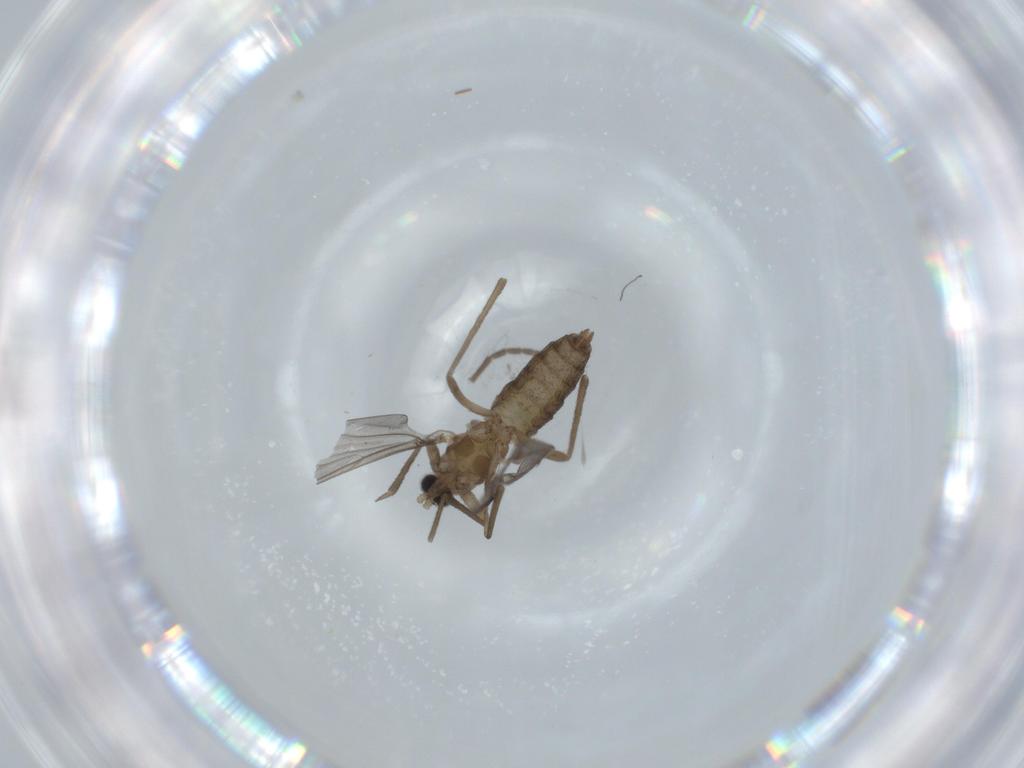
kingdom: Animalia
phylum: Arthropoda
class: Insecta
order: Diptera
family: Cecidomyiidae
